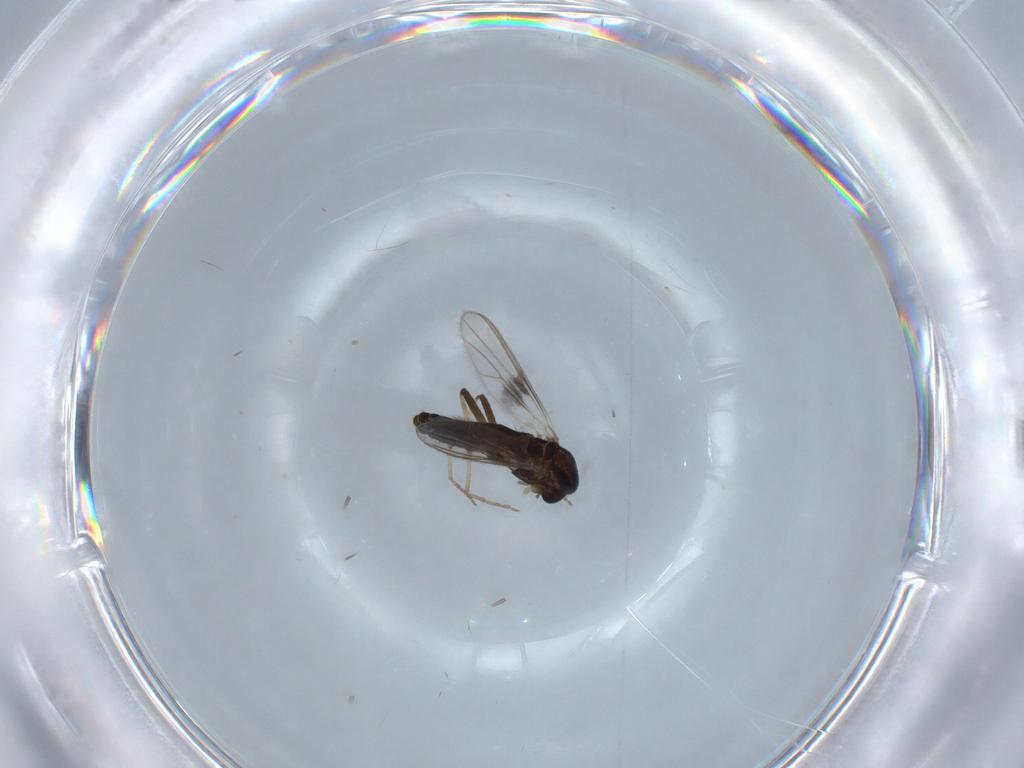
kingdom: Animalia
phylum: Arthropoda
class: Insecta
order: Diptera
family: Chironomidae
